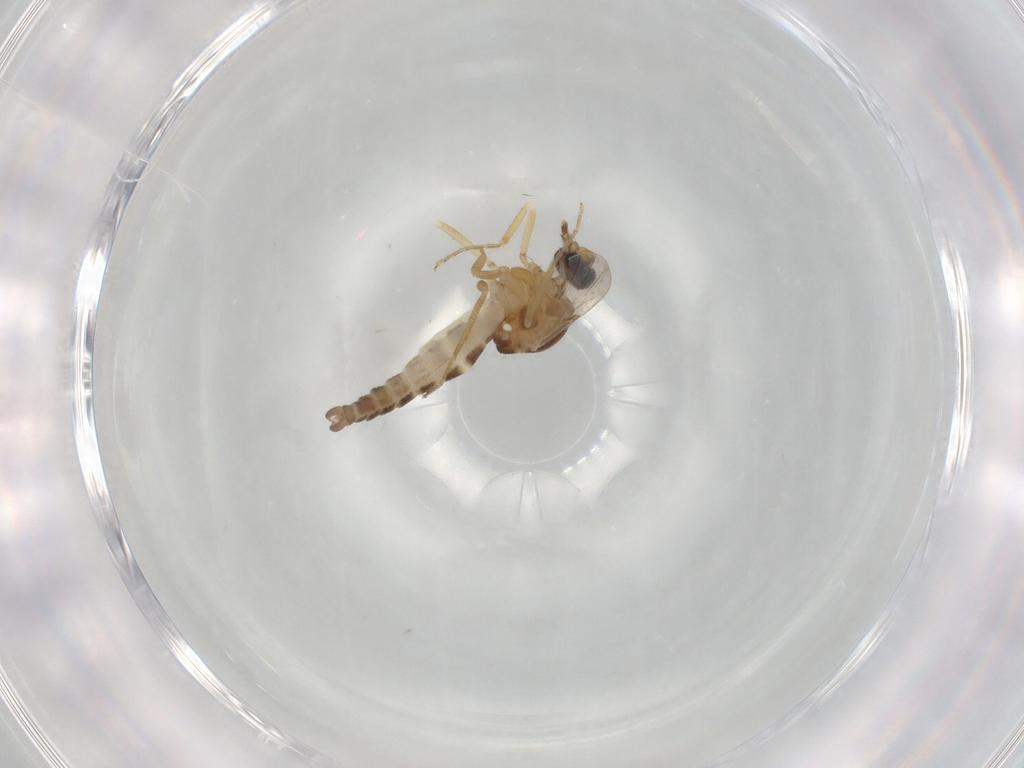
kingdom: Animalia
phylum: Arthropoda
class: Insecta
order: Diptera
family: Ceratopogonidae
